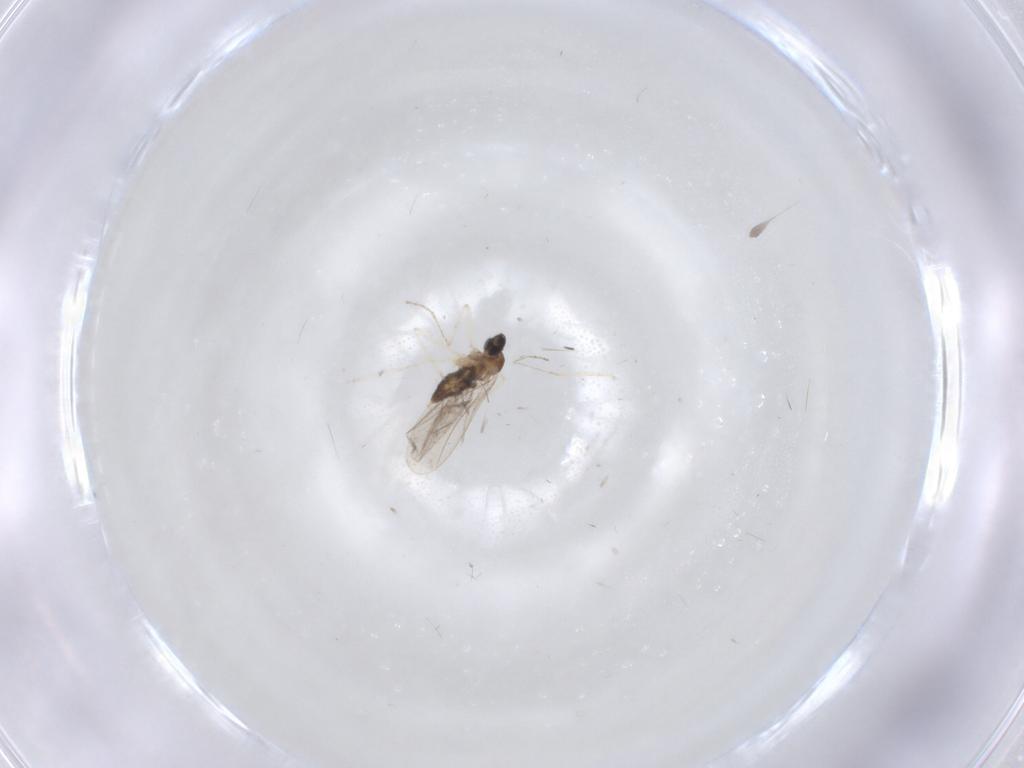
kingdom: Animalia
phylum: Arthropoda
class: Insecta
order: Diptera
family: Cecidomyiidae
